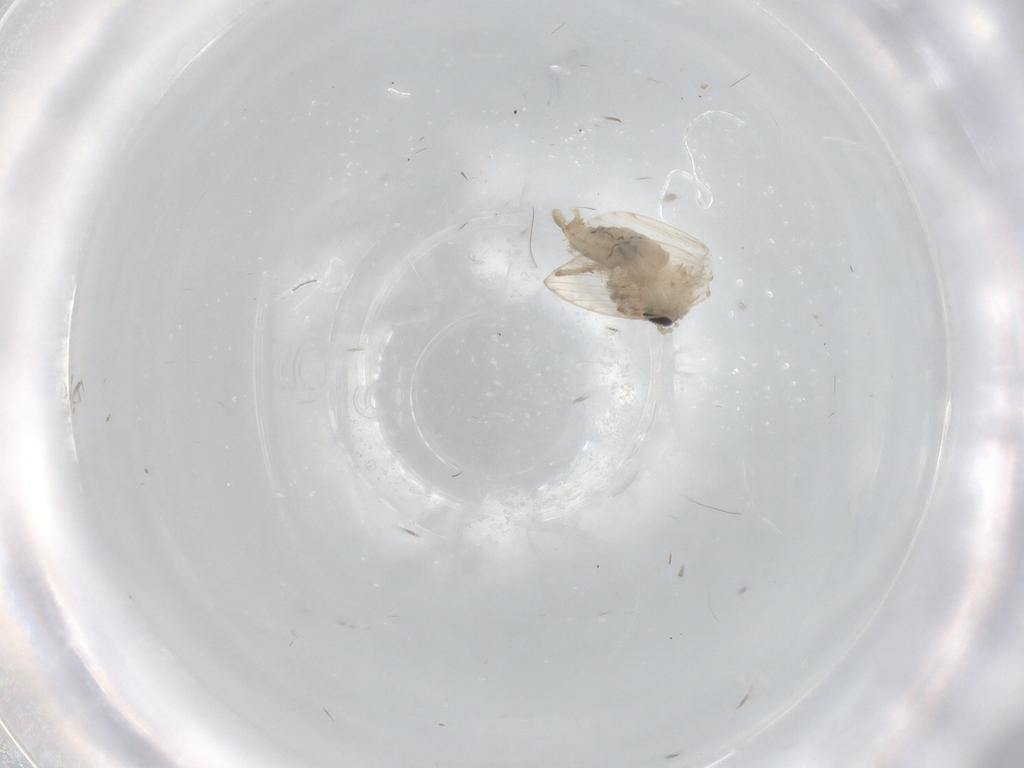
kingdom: Animalia
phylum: Arthropoda
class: Insecta
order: Diptera
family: Psychodidae
